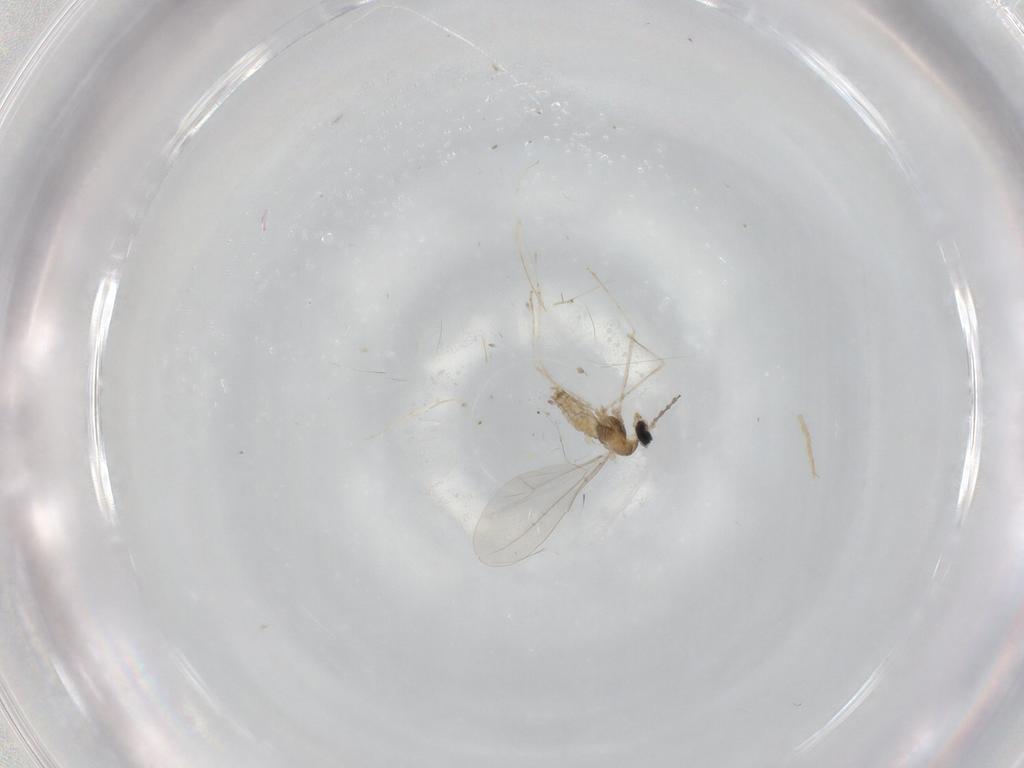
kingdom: Animalia
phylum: Arthropoda
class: Insecta
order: Diptera
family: Cecidomyiidae
